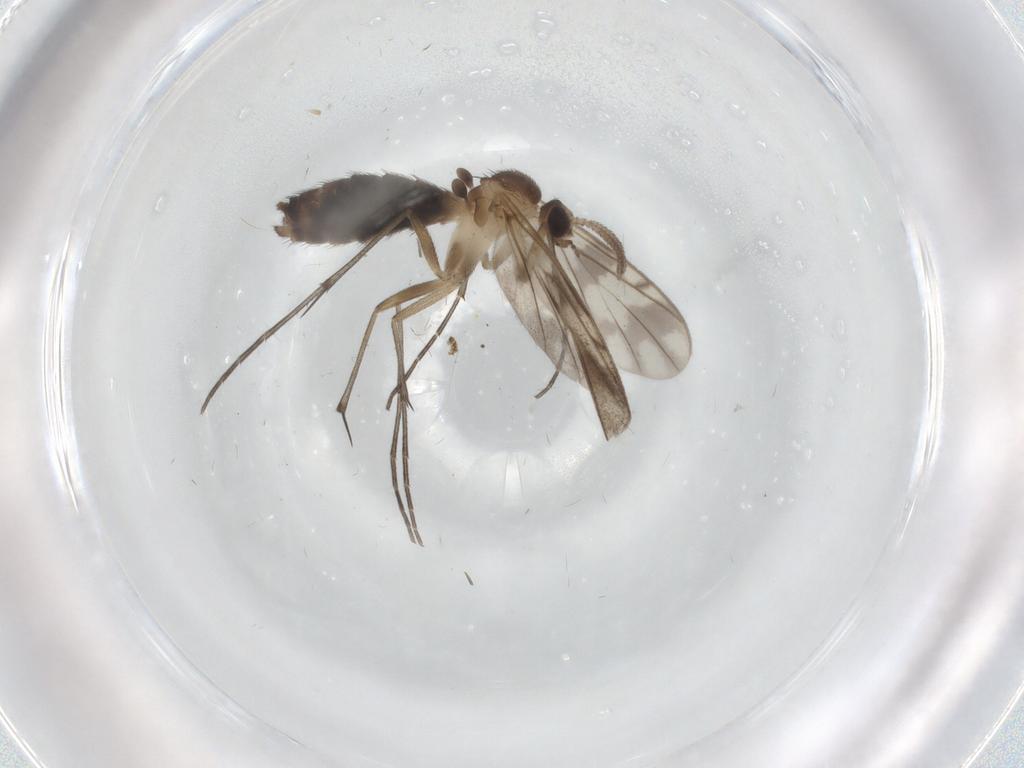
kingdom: Animalia
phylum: Arthropoda
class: Insecta
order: Diptera
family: Keroplatidae
